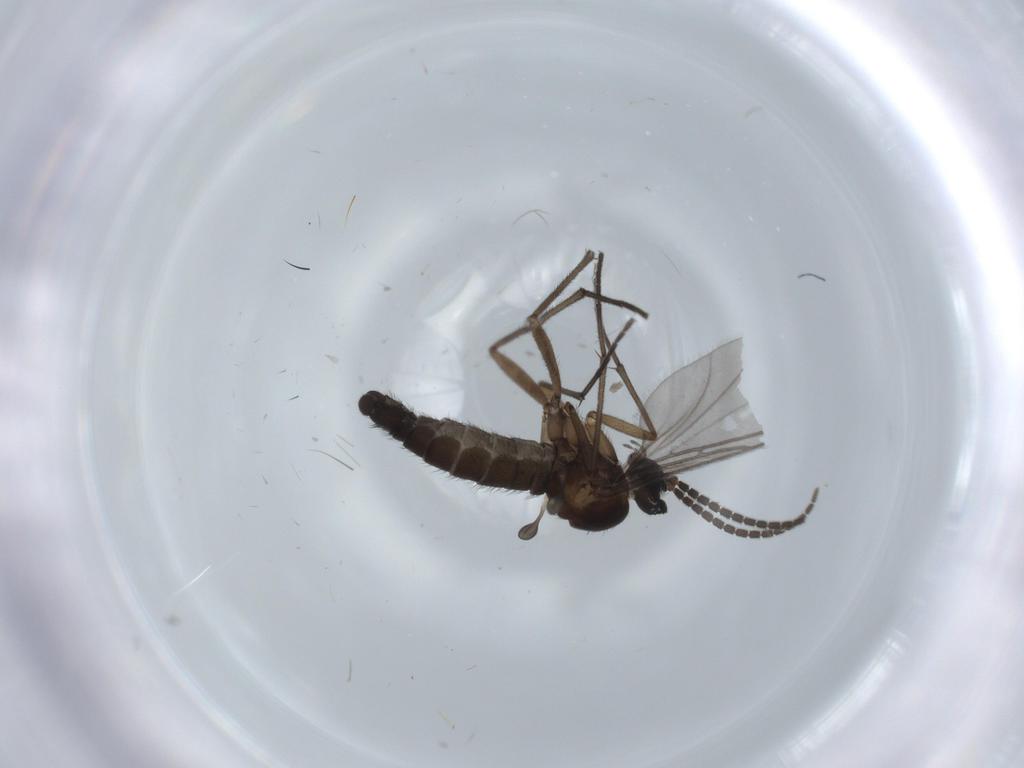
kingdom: Animalia
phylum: Arthropoda
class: Insecta
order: Diptera
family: Sciaridae
